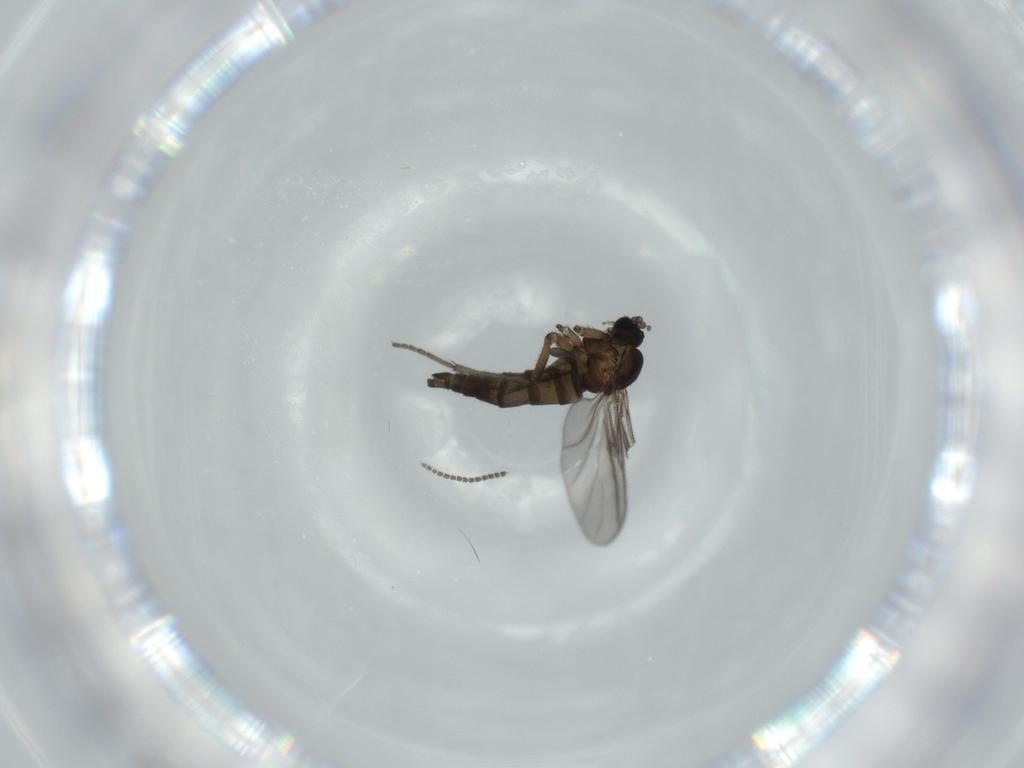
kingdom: Animalia
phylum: Arthropoda
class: Insecta
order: Diptera
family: Sciaridae
